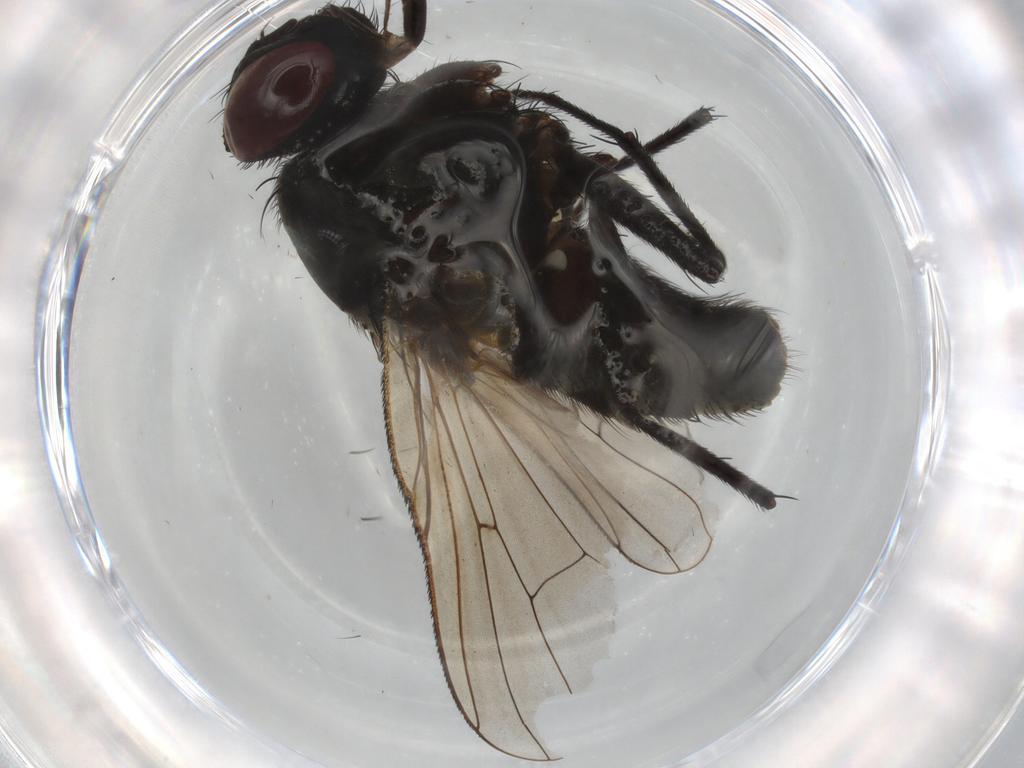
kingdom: Animalia
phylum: Arthropoda
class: Insecta
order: Diptera
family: Muscidae
